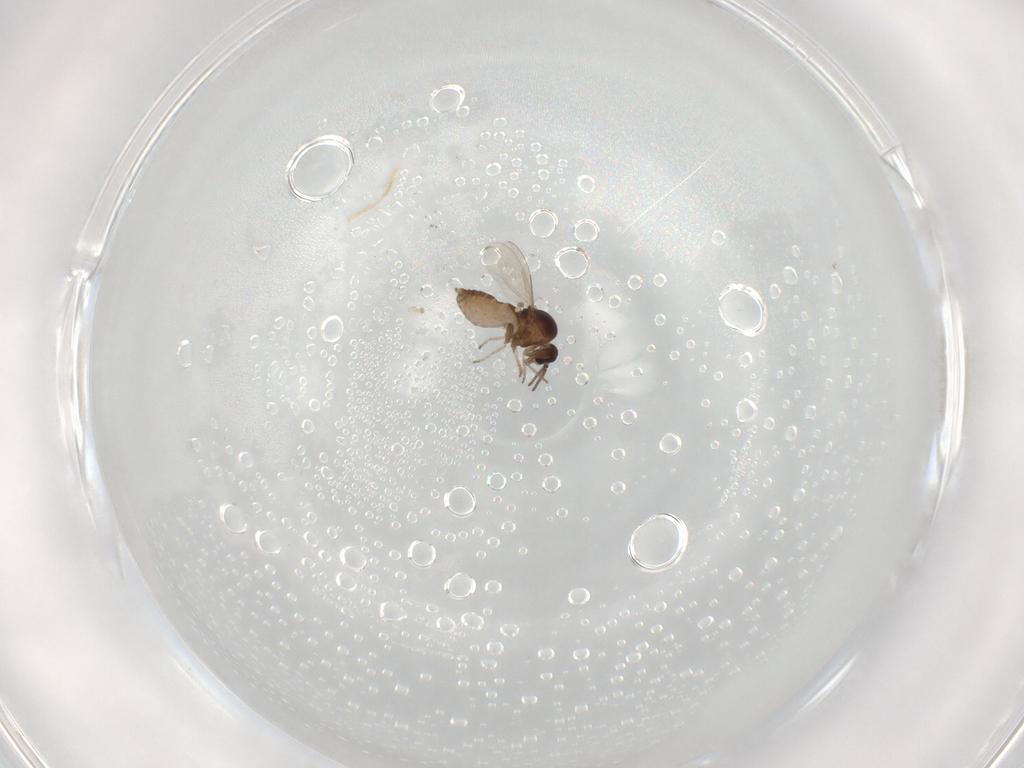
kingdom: Animalia
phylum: Arthropoda
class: Insecta
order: Diptera
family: Ceratopogonidae
